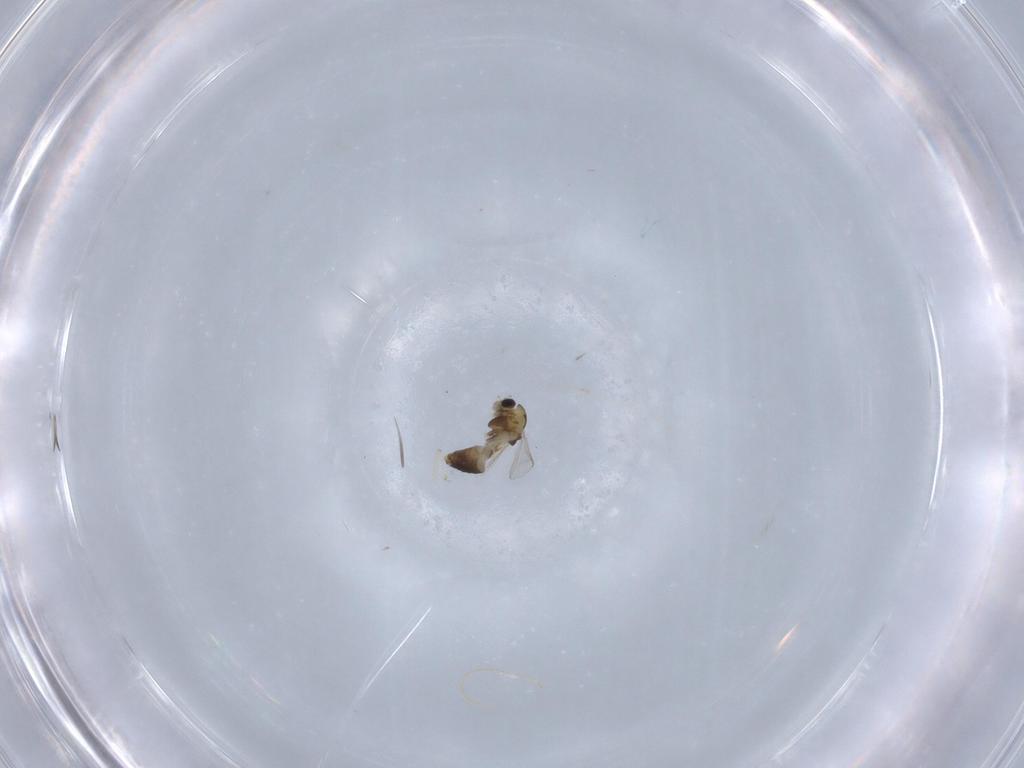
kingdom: Animalia
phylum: Arthropoda
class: Insecta
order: Diptera
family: Chironomidae
